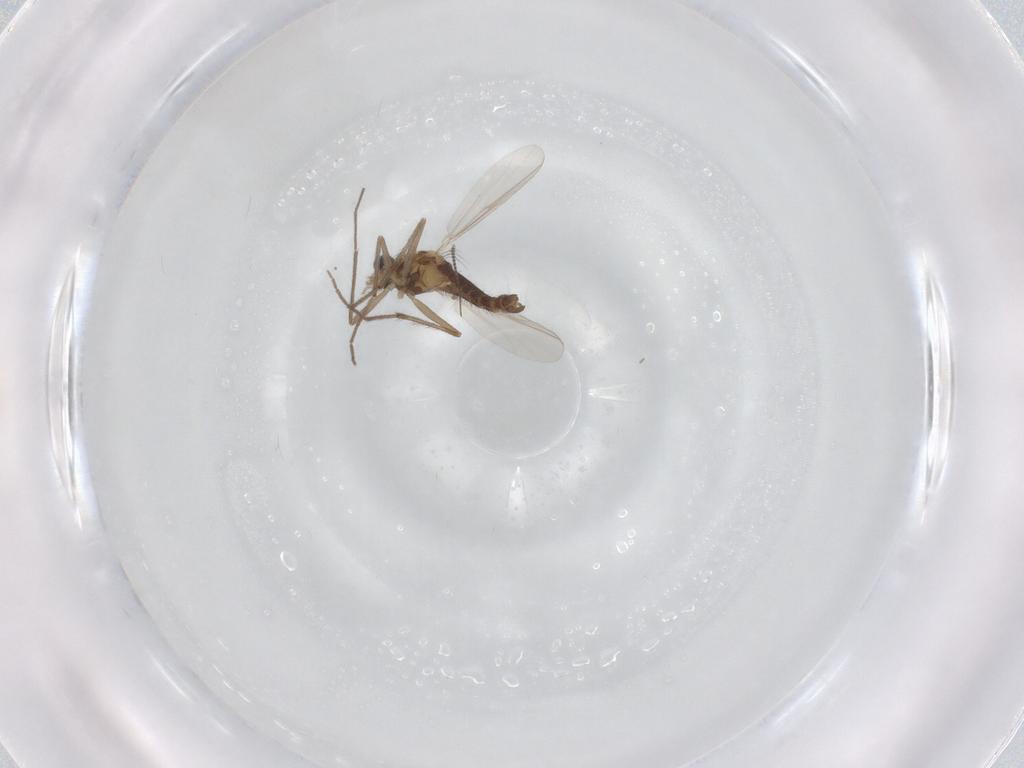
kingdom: Animalia
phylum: Arthropoda
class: Insecta
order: Diptera
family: Chironomidae
